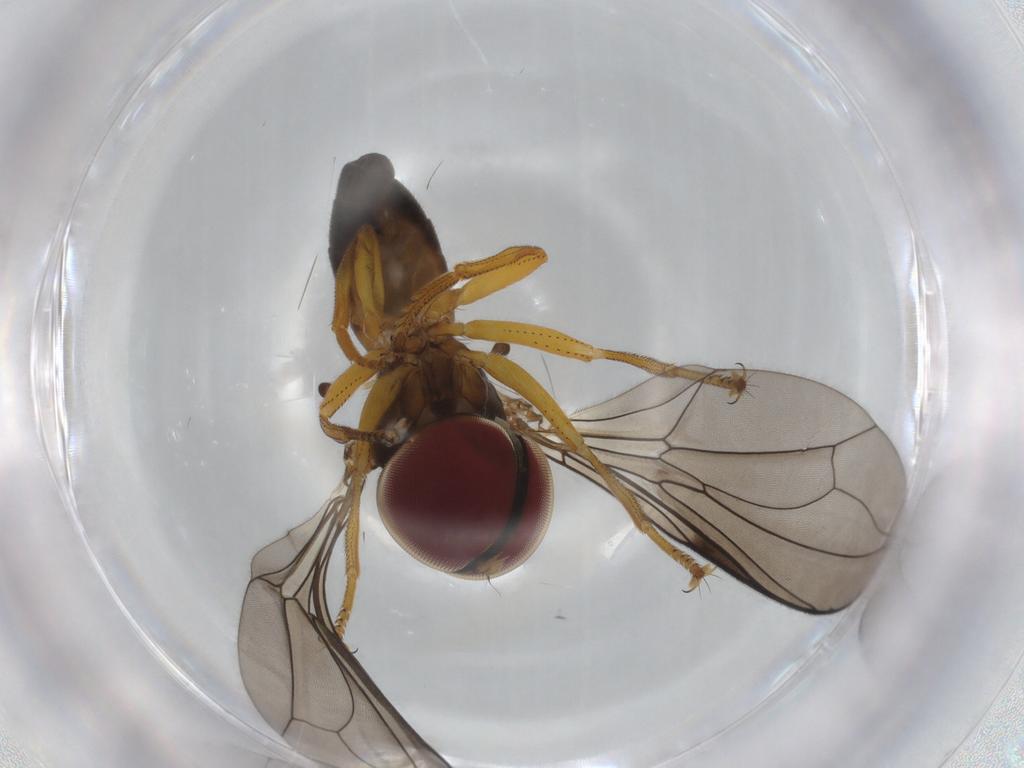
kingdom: Animalia
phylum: Arthropoda
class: Insecta
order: Diptera
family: Pipunculidae
